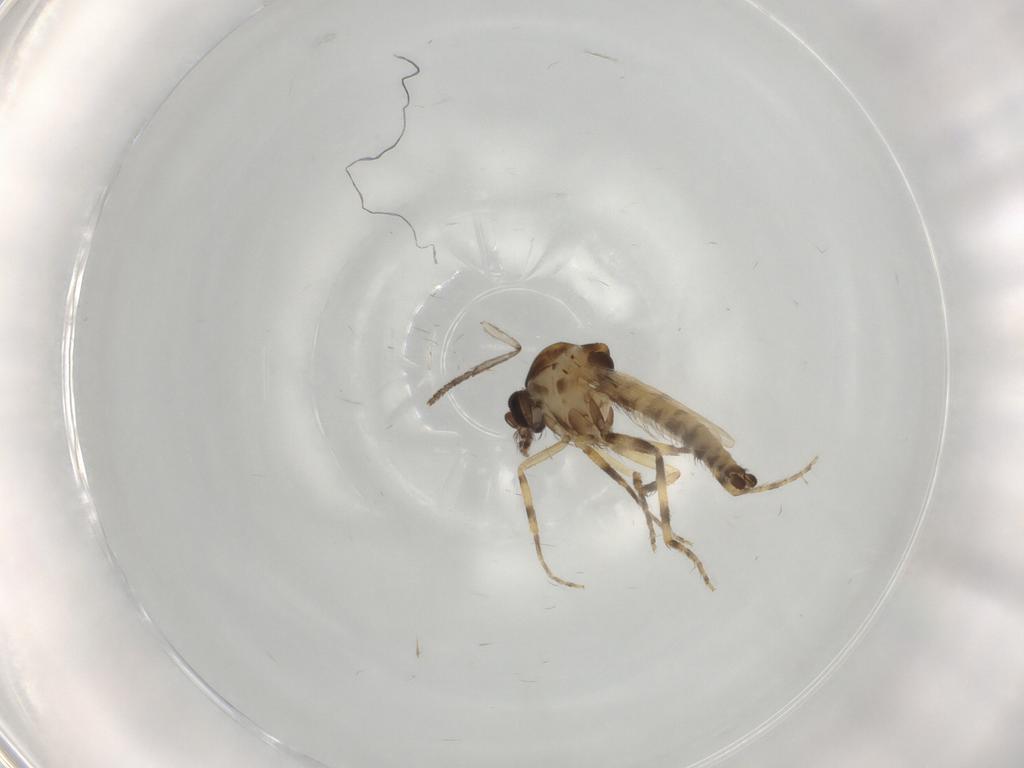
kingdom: Animalia
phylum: Arthropoda
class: Insecta
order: Diptera
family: Ceratopogonidae
